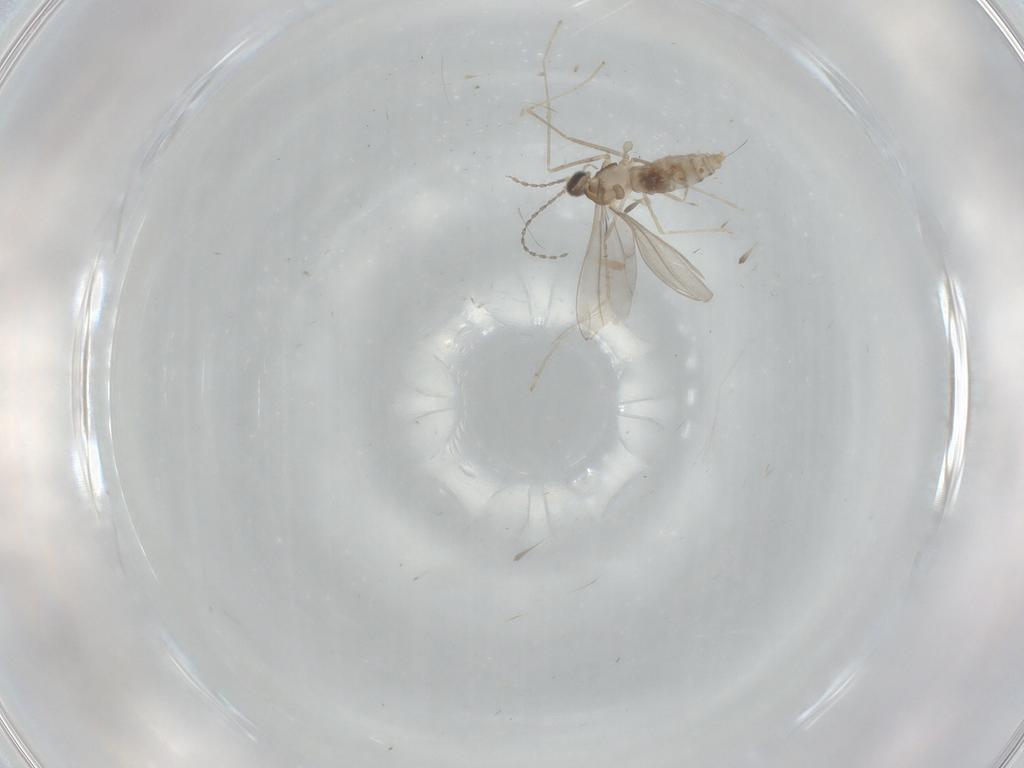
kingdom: Animalia
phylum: Arthropoda
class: Insecta
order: Diptera
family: Cecidomyiidae
